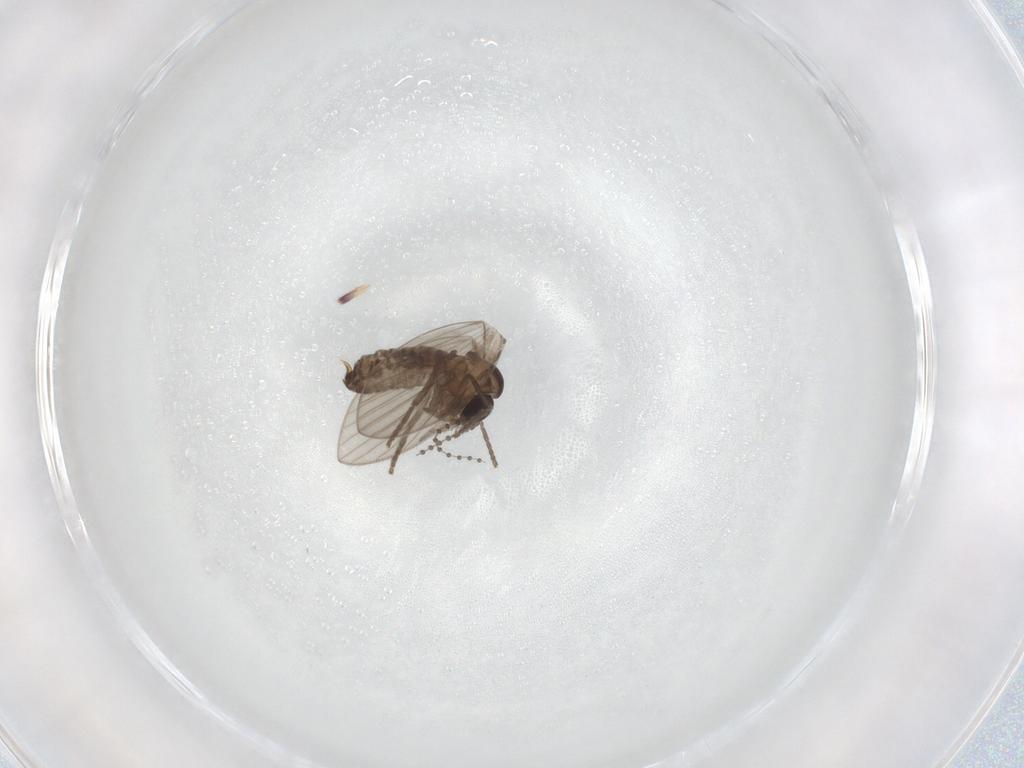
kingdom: Animalia
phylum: Arthropoda
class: Insecta
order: Diptera
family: Psychodidae
